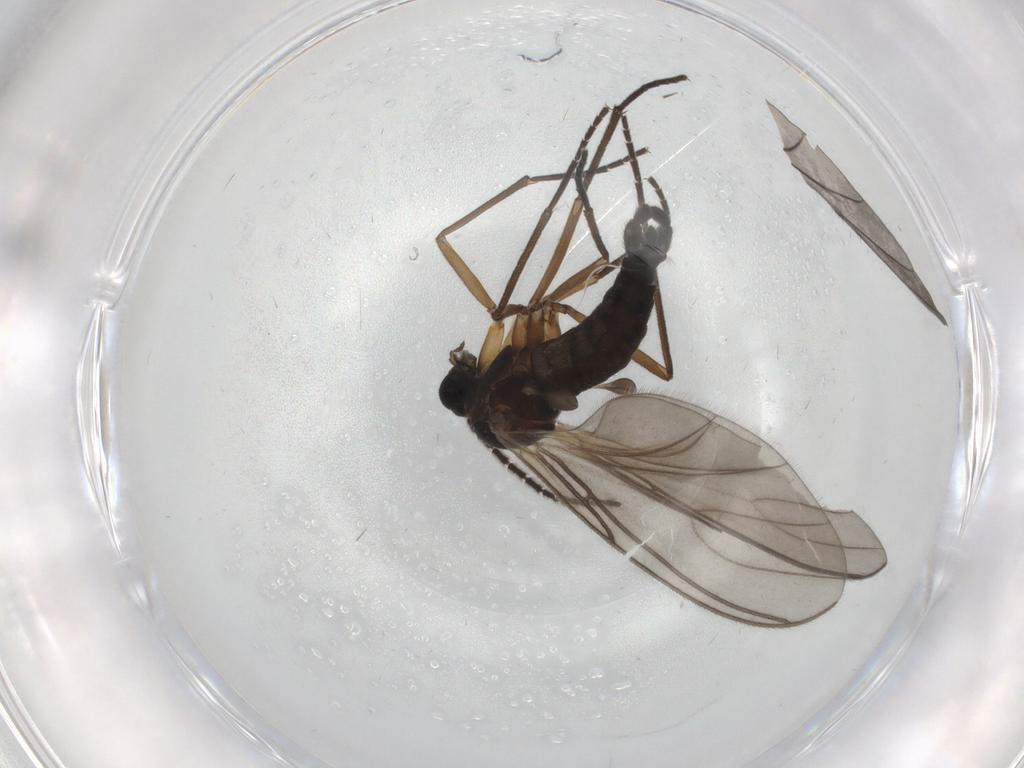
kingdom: Animalia
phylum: Arthropoda
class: Insecta
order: Diptera
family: Sciaridae
